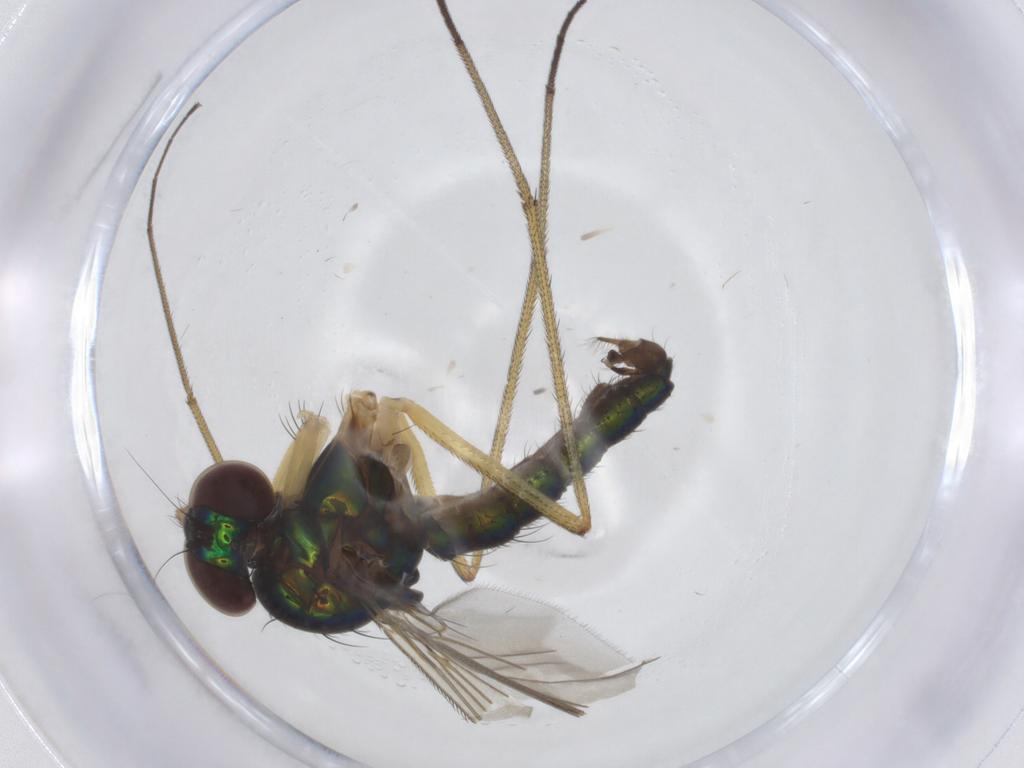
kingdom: Animalia
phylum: Arthropoda
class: Insecta
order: Diptera
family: Dolichopodidae
